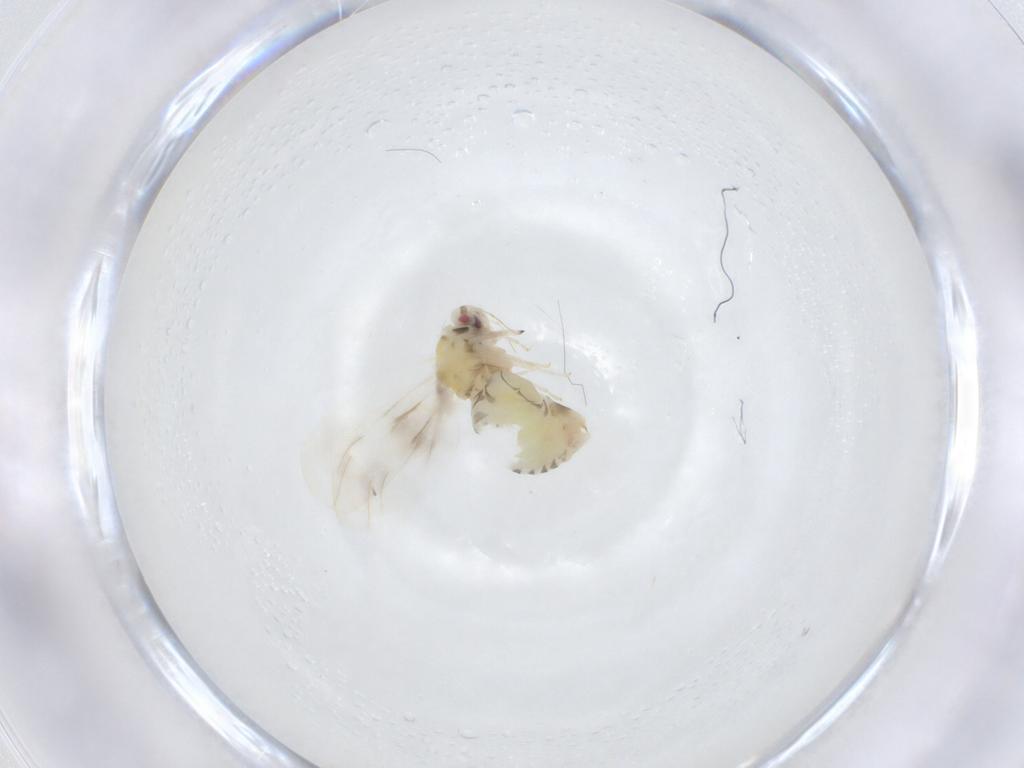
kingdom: Animalia
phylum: Arthropoda
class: Insecta
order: Hemiptera
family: Aleyrodidae
